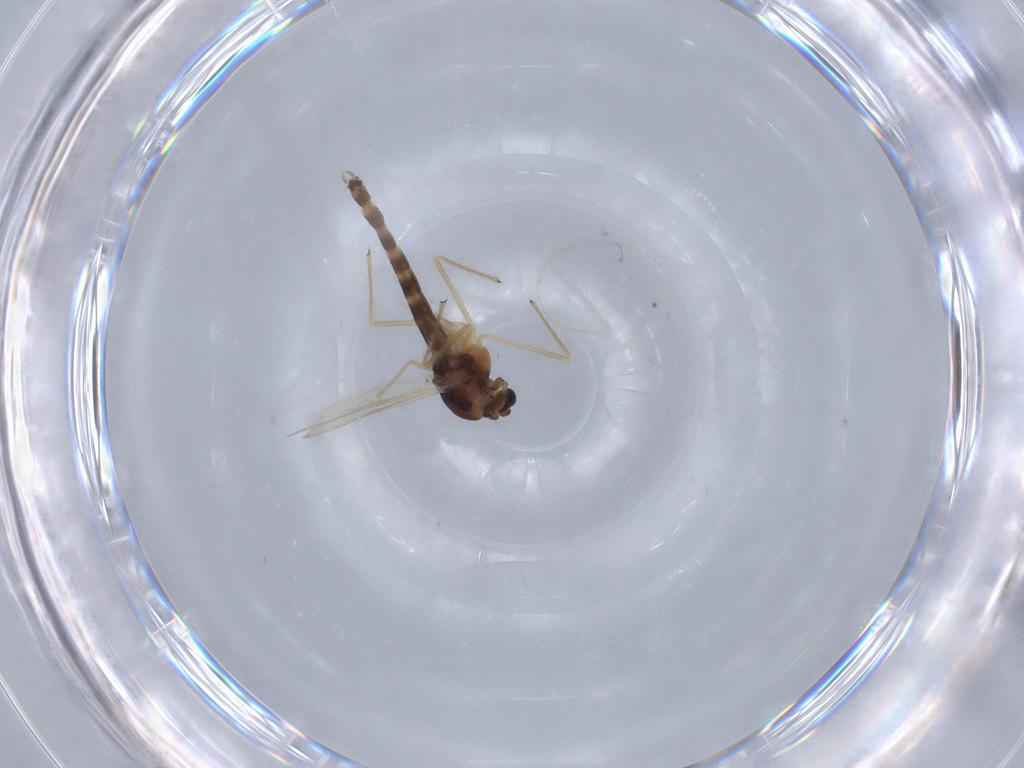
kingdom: Animalia
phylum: Arthropoda
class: Insecta
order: Diptera
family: Chironomidae
